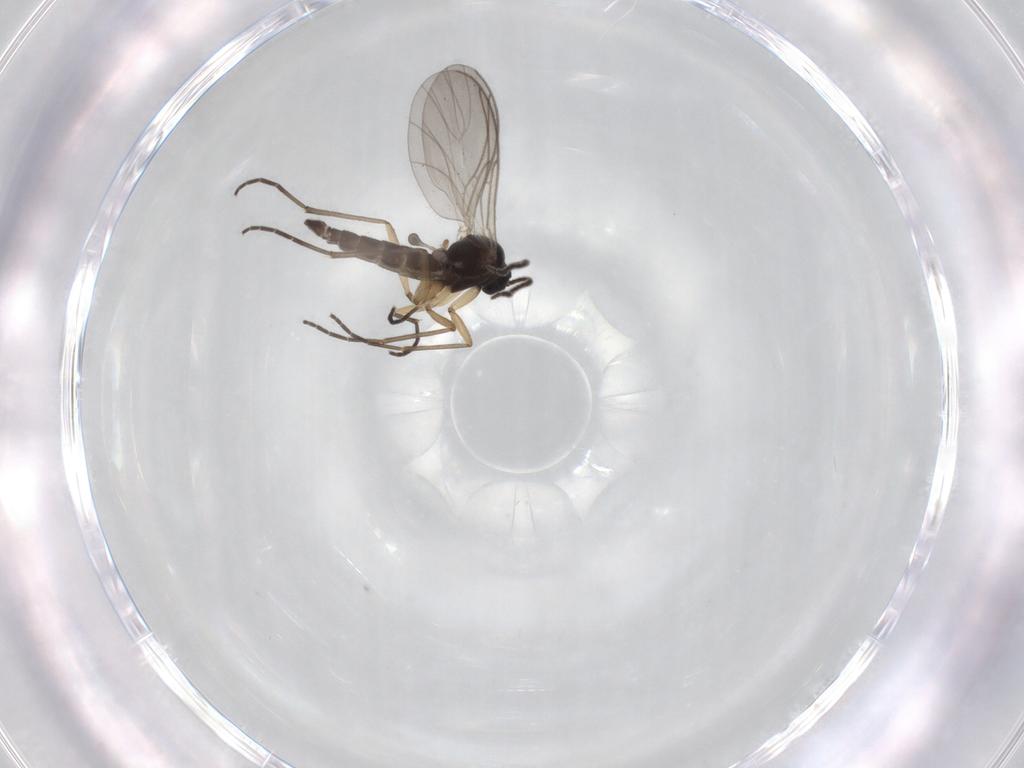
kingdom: Animalia
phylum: Arthropoda
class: Insecta
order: Diptera
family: Sciaridae
